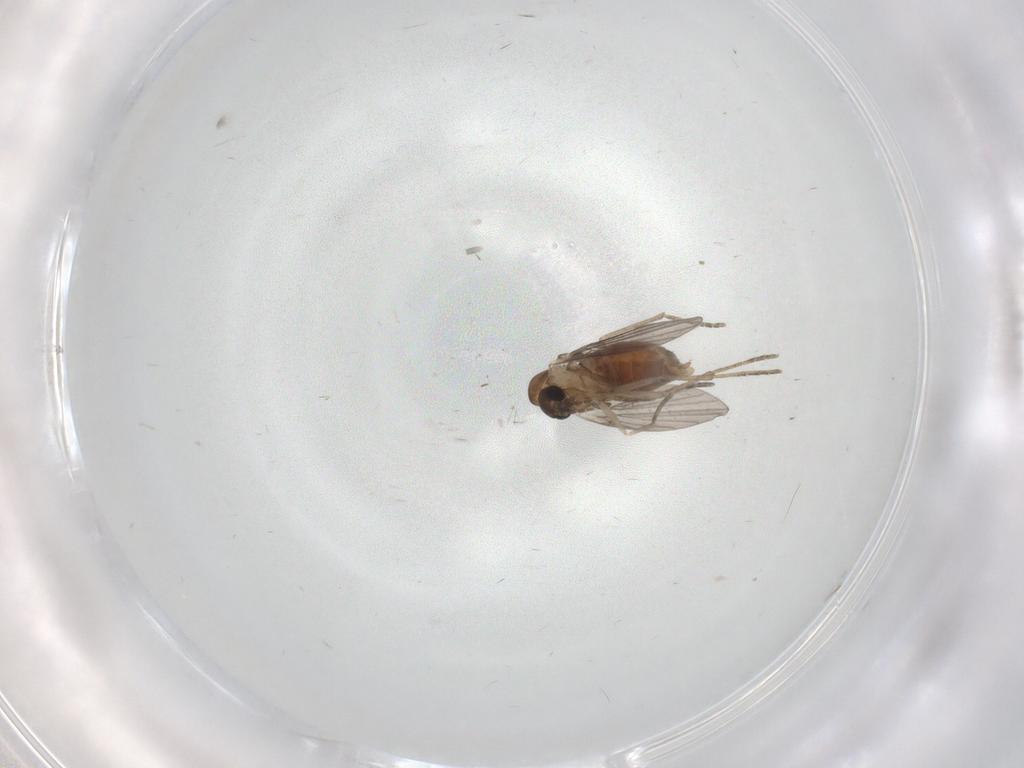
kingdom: Animalia
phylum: Arthropoda
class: Insecta
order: Diptera
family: Chironomidae
